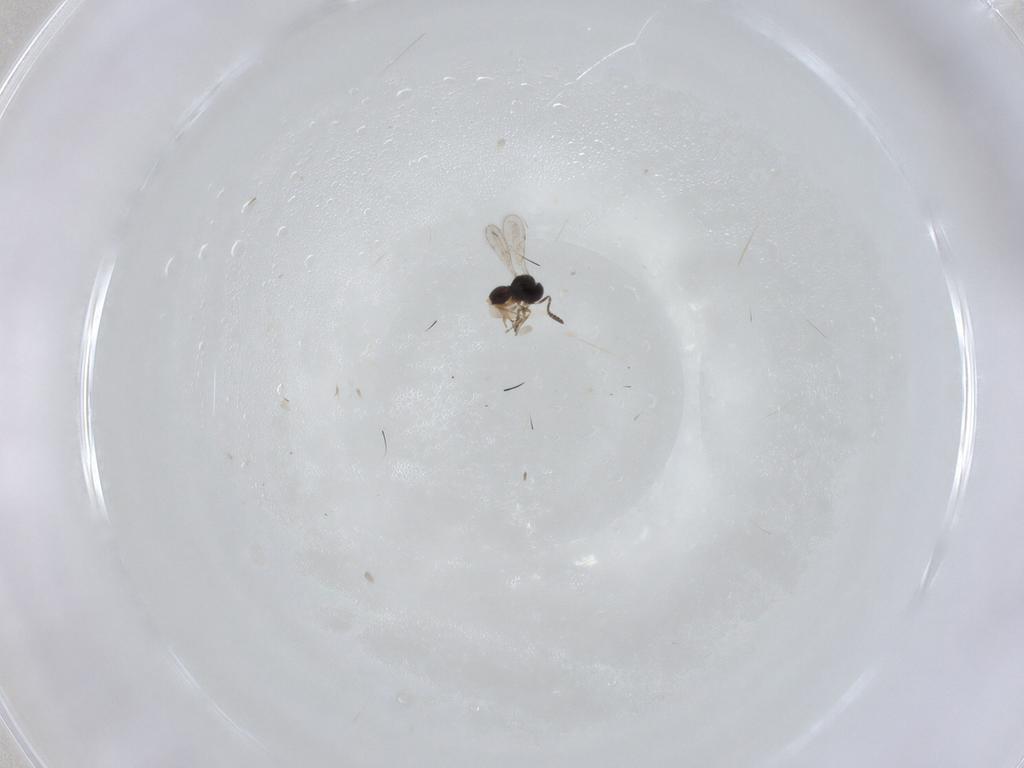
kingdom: Animalia
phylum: Arthropoda
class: Insecta
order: Hymenoptera
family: Scelionidae
